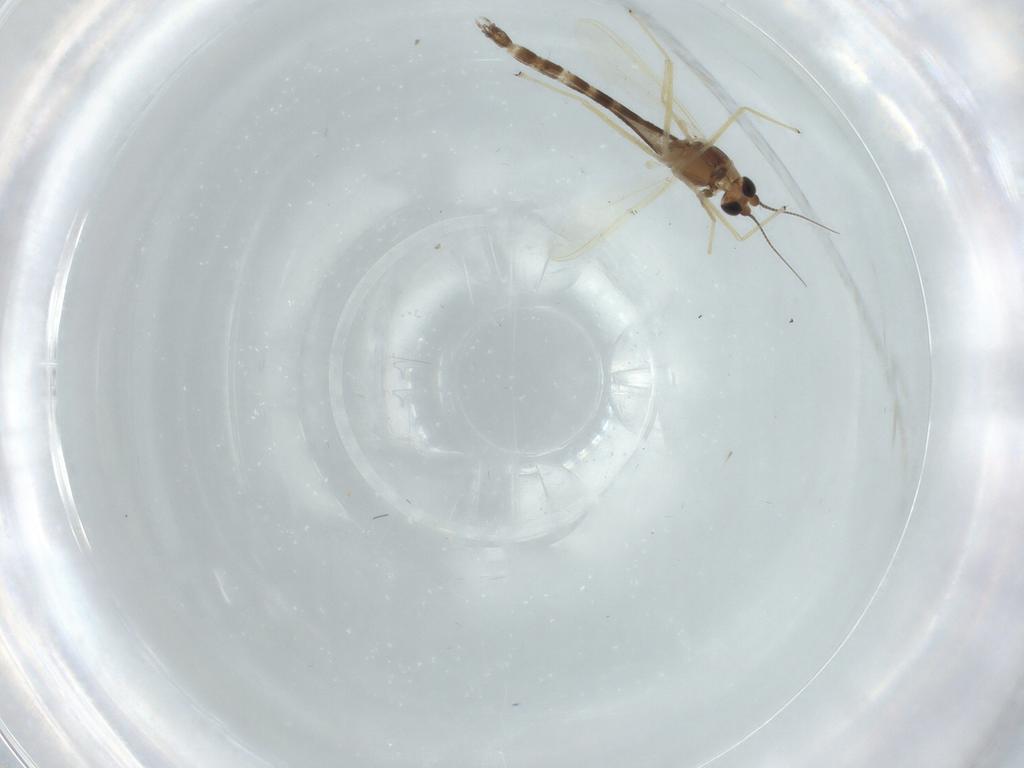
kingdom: Animalia
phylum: Arthropoda
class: Insecta
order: Diptera
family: Chironomidae
